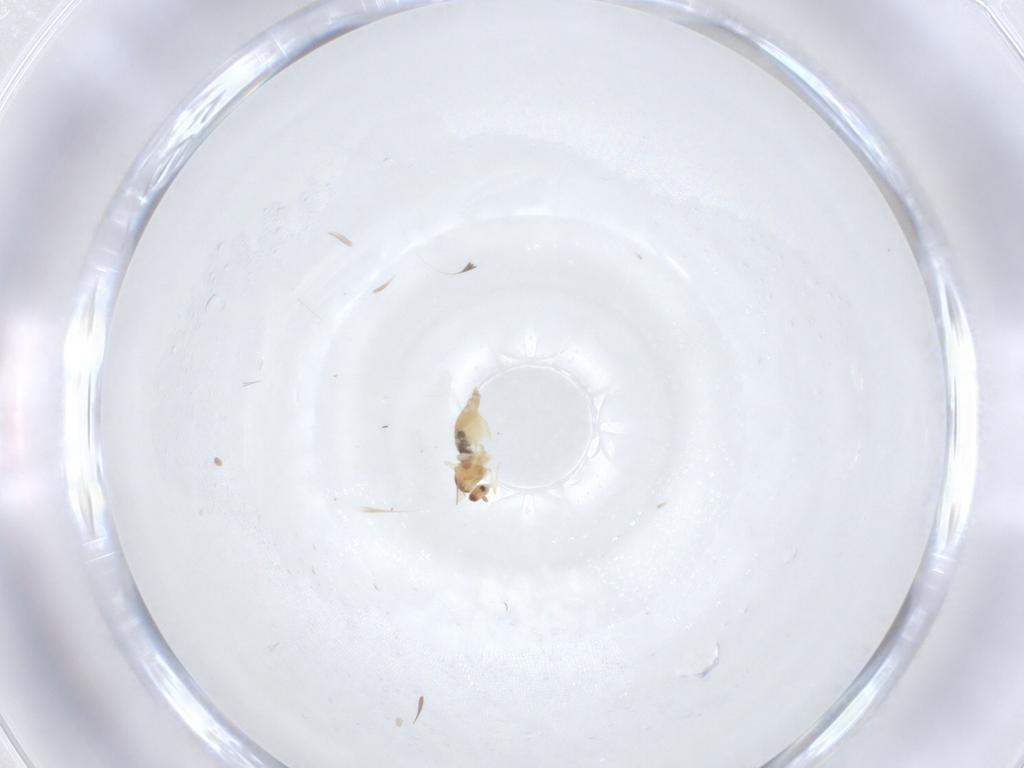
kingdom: Animalia
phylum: Arthropoda
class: Insecta
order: Diptera
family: Cecidomyiidae
